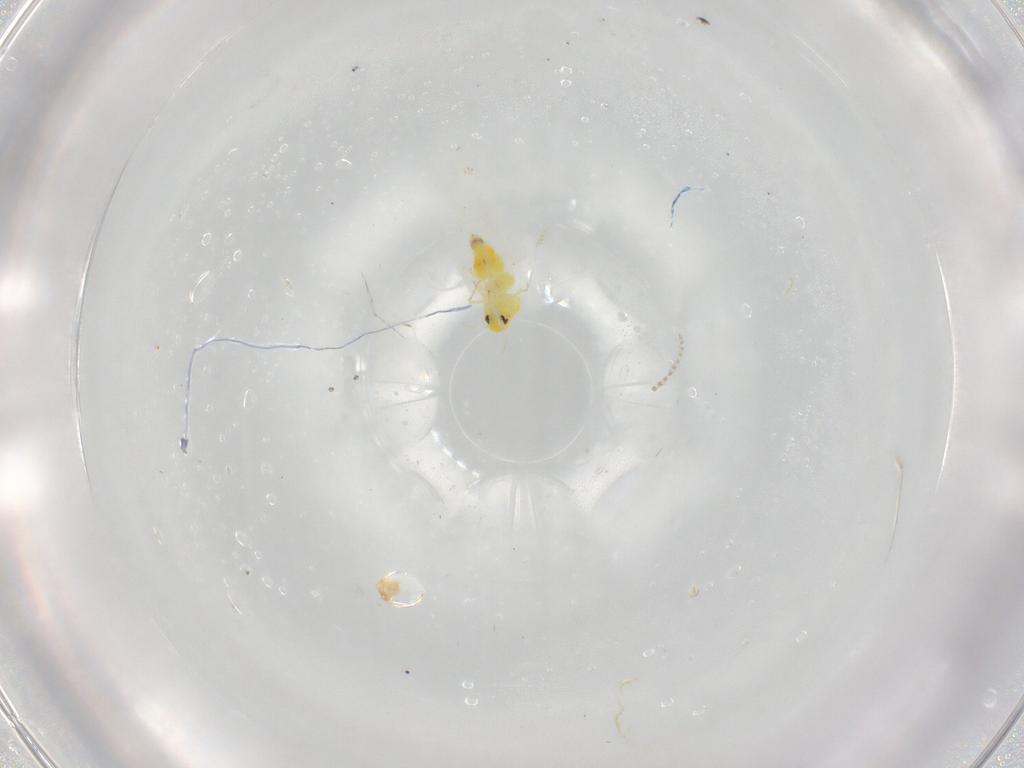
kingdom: Animalia
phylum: Arthropoda
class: Insecta
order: Hemiptera
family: Aleyrodidae
